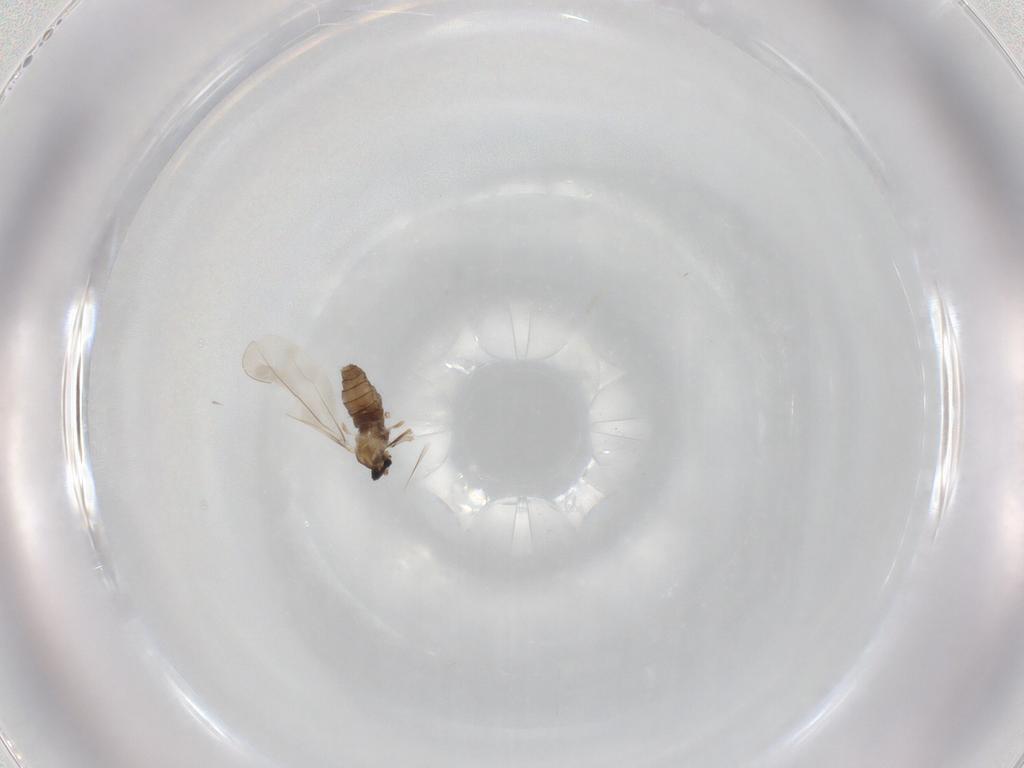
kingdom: Animalia
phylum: Arthropoda
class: Insecta
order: Diptera
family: Cecidomyiidae
